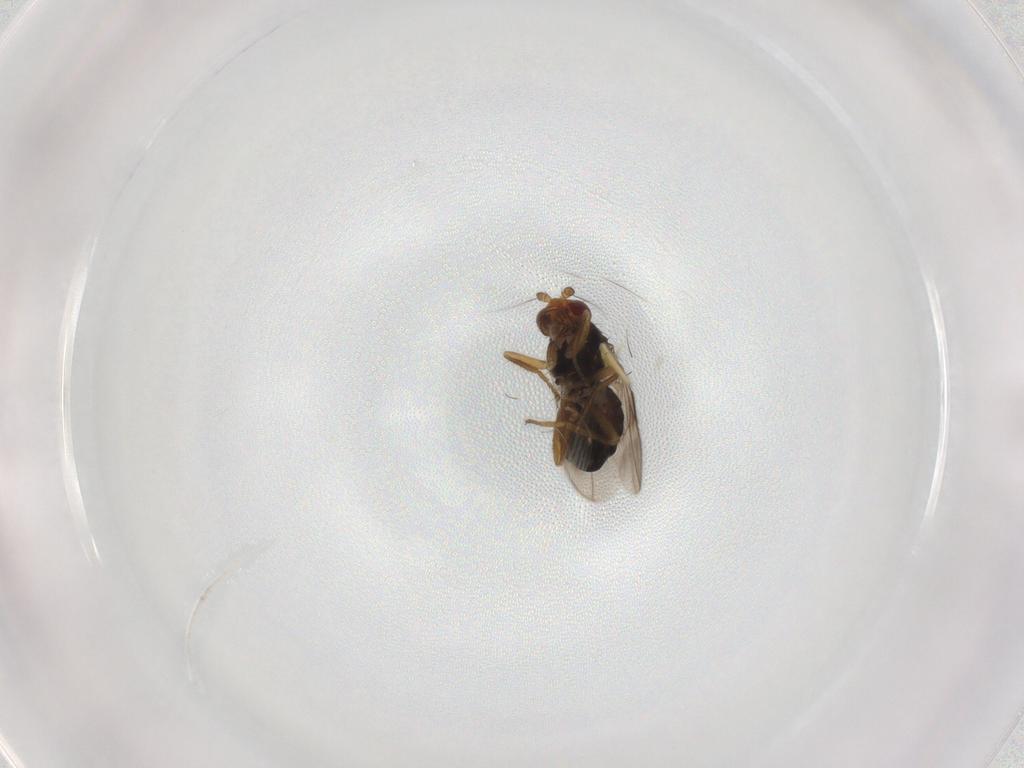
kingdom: Animalia
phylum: Arthropoda
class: Insecta
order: Diptera
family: Sphaeroceridae
